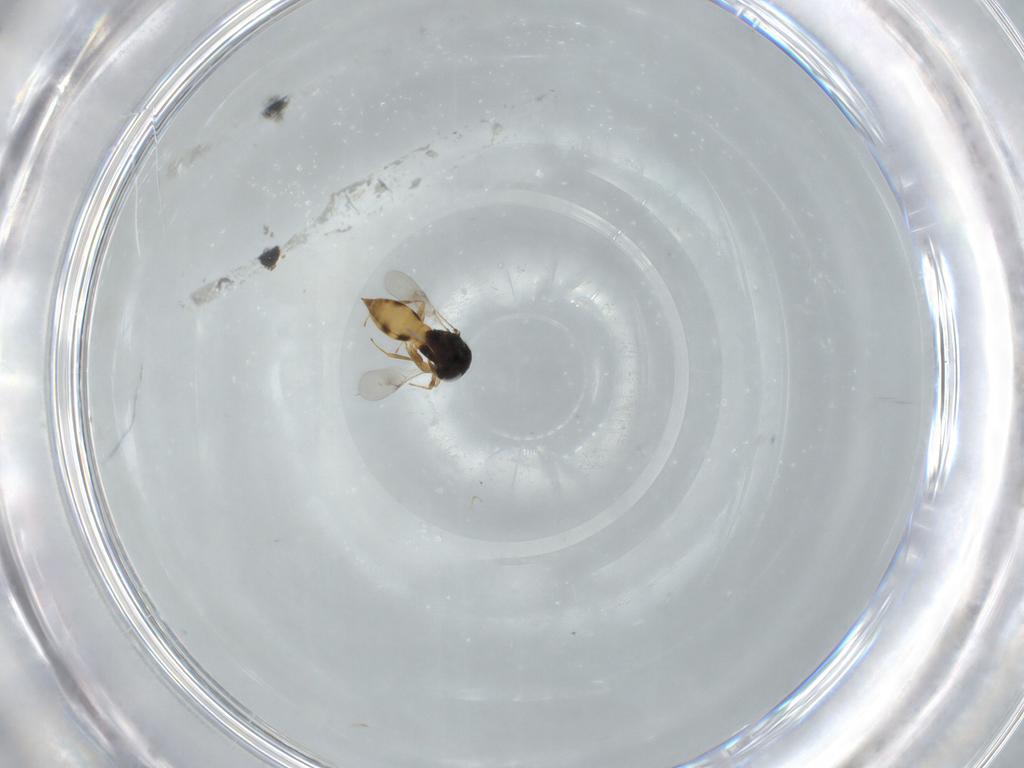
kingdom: Animalia
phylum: Arthropoda
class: Arachnida
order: Araneae
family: Pholcidae
